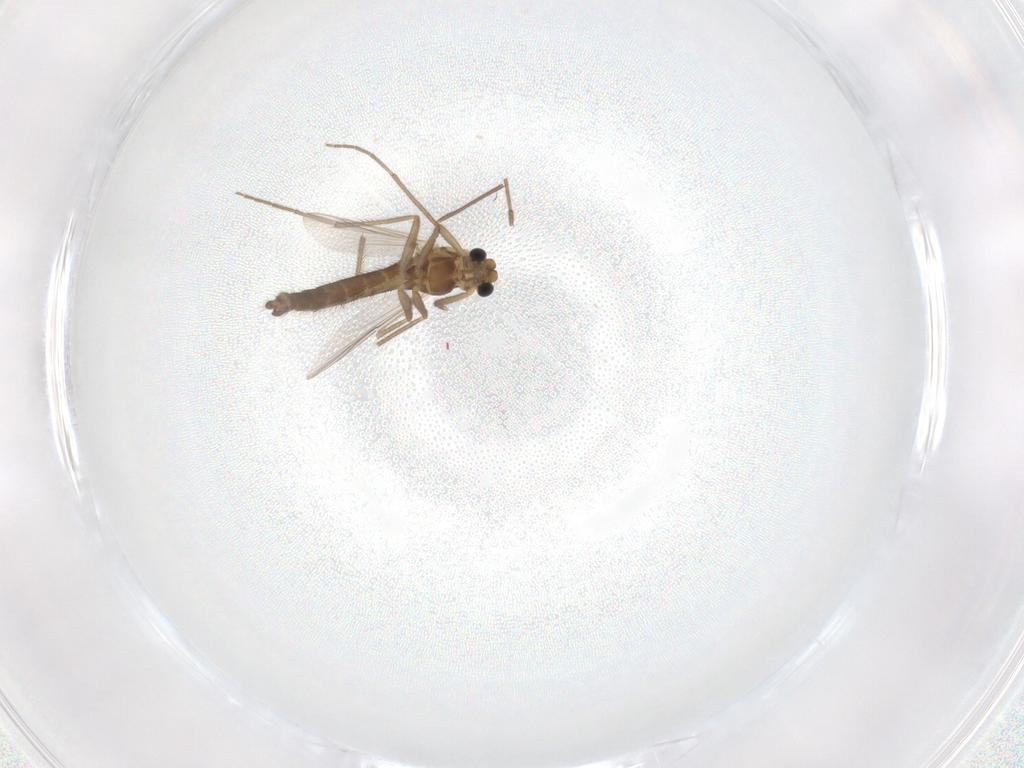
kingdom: Animalia
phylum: Arthropoda
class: Insecta
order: Diptera
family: Chironomidae
